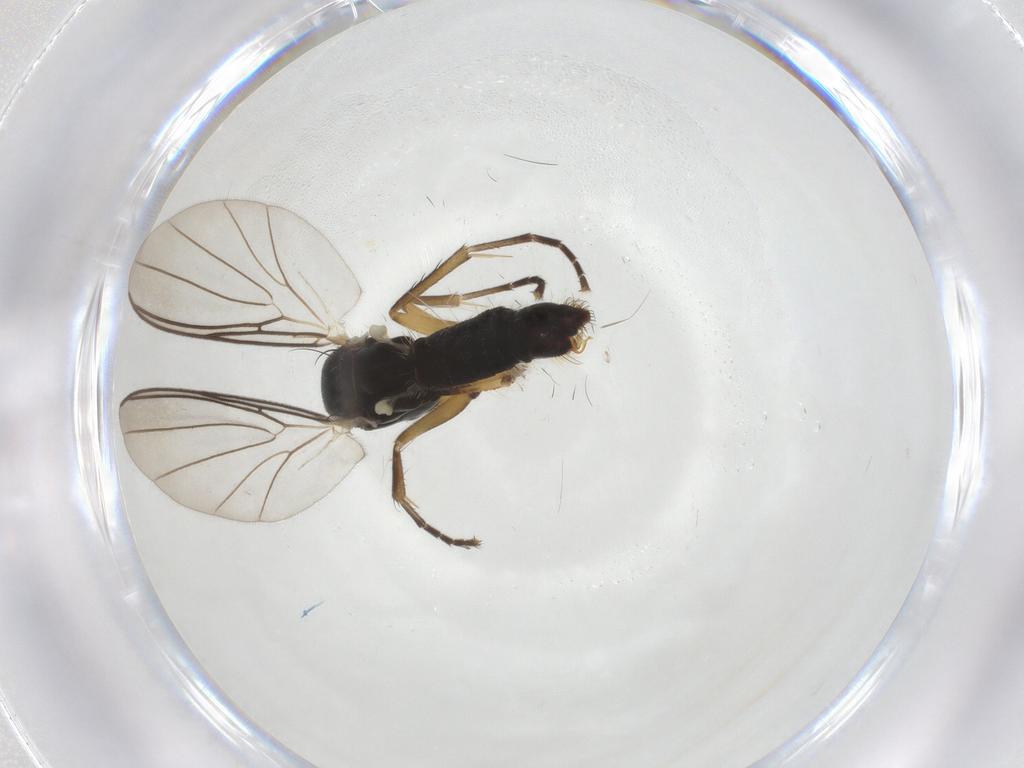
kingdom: Animalia
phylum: Arthropoda
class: Insecta
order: Diptera
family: Mycetophilidae
